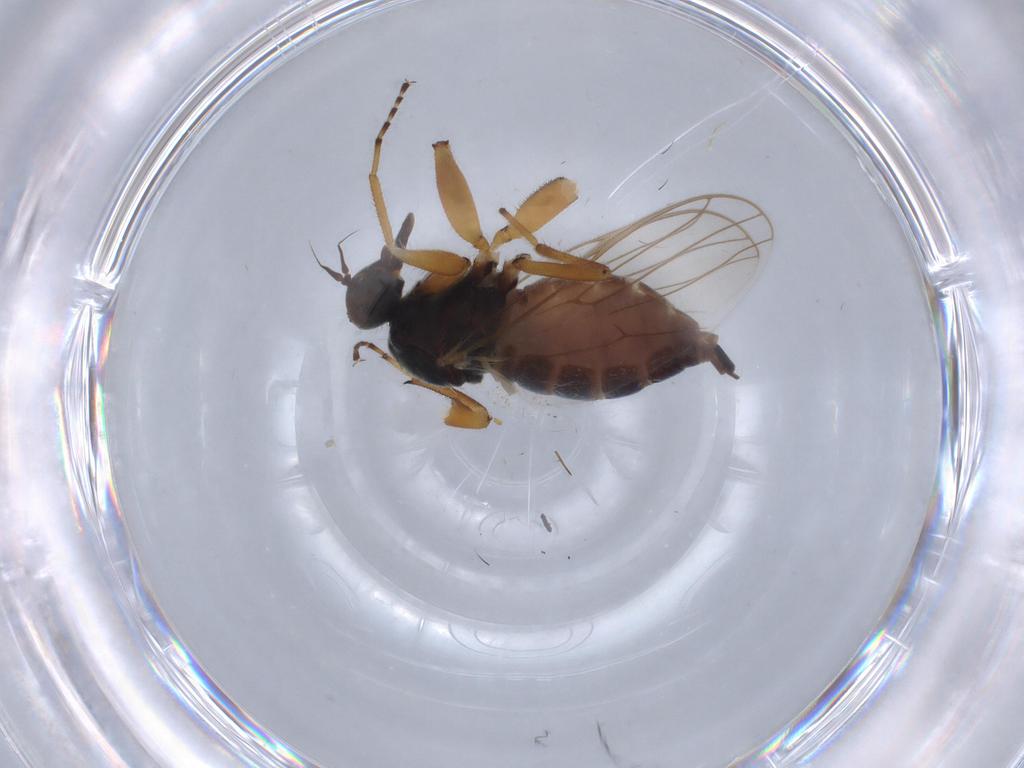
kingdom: Animalia
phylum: Arthropoda
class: Insecta
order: Diptera
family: Hybotidae
